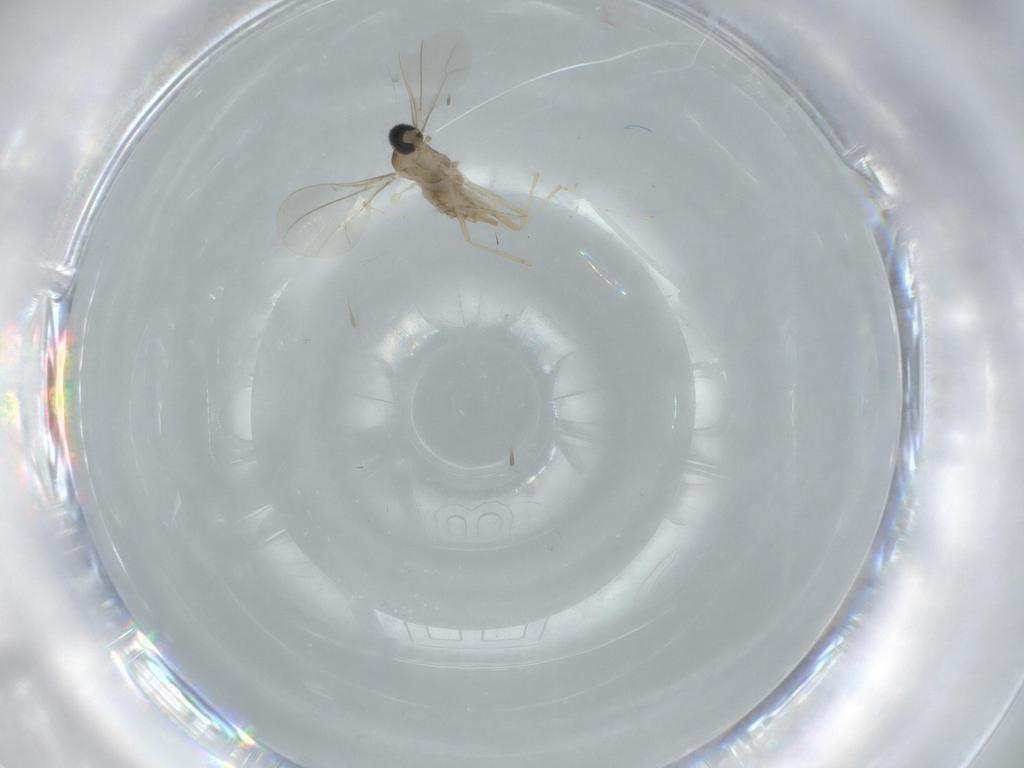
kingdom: Animalia
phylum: Arthropoda
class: Insecta
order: Diptera
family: Cecidomyiidae
